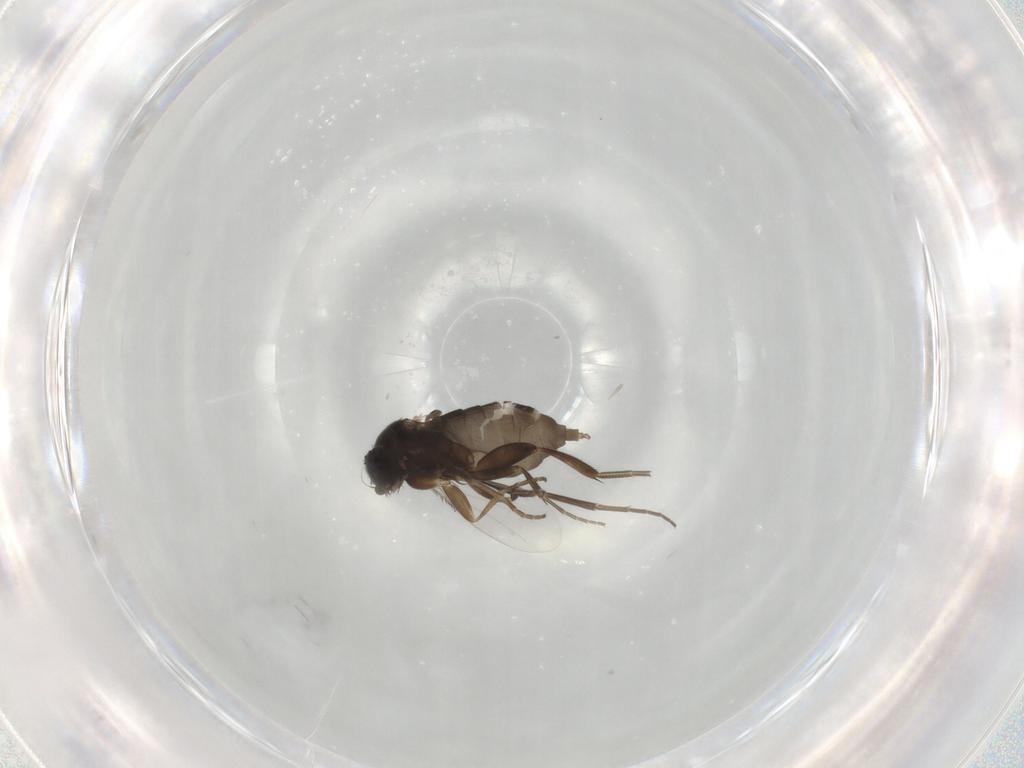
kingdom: Animalia
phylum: Arthropoda
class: Insecta
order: Diptera
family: Phoridae
